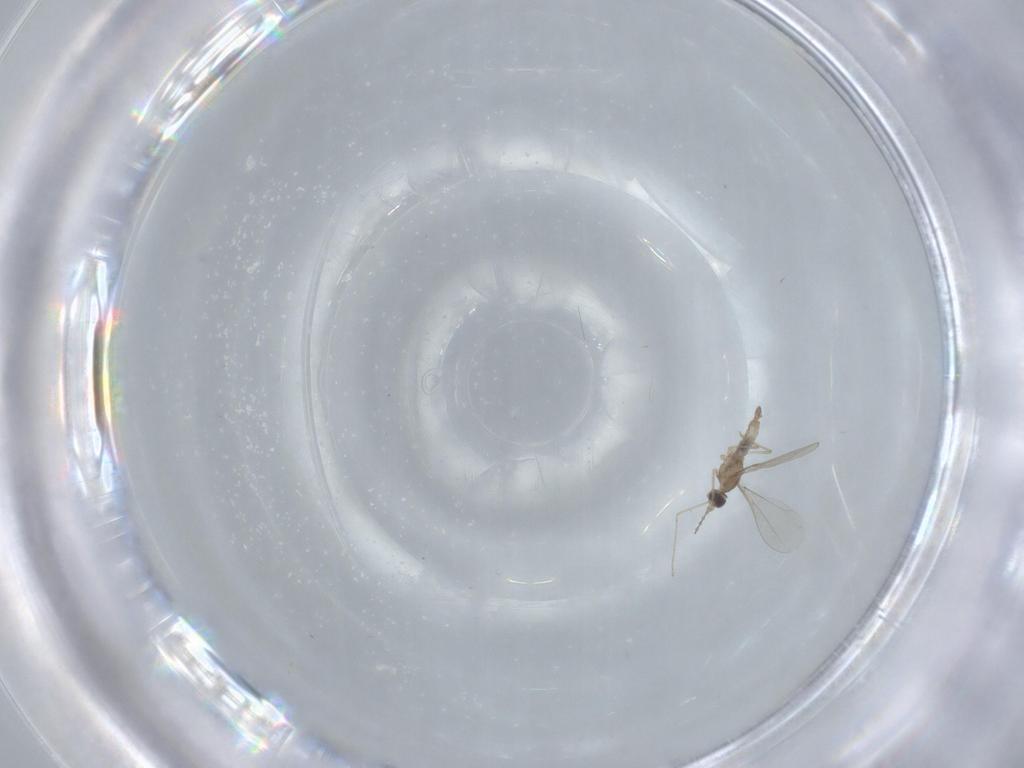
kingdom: Animalia
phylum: Arthropoda
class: Insecta
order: Diptera
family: Cecidomyiidae
